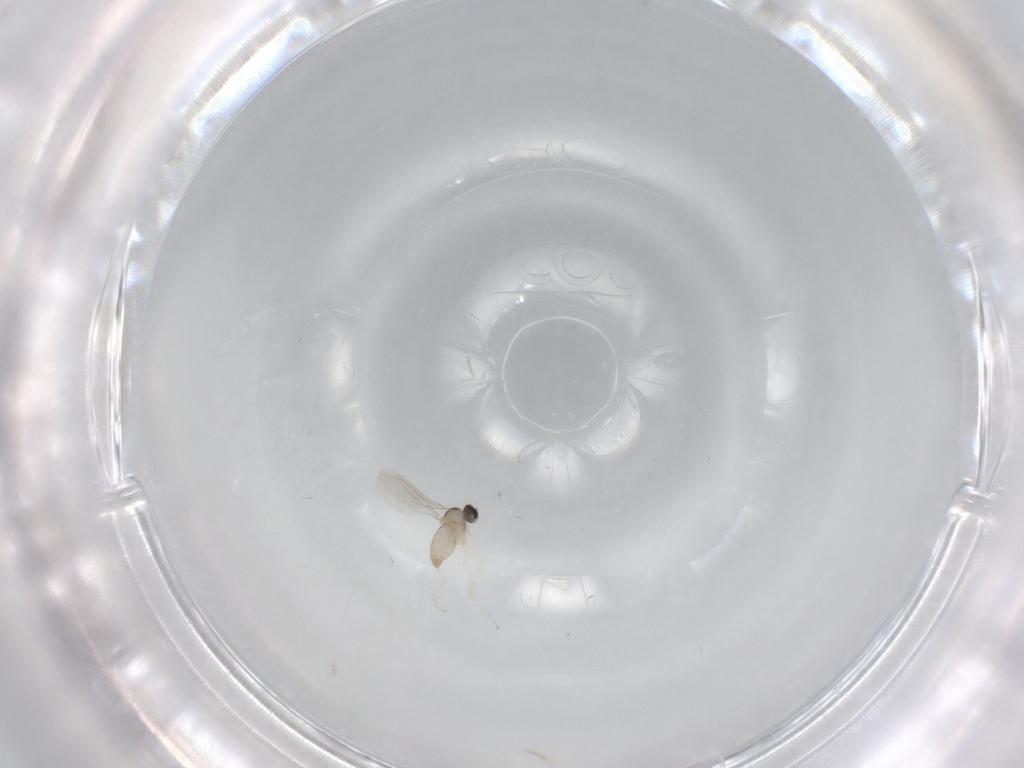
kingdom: Animalia
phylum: Arthropoda
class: Insecta
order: Diptera
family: Cecidomyiidae
